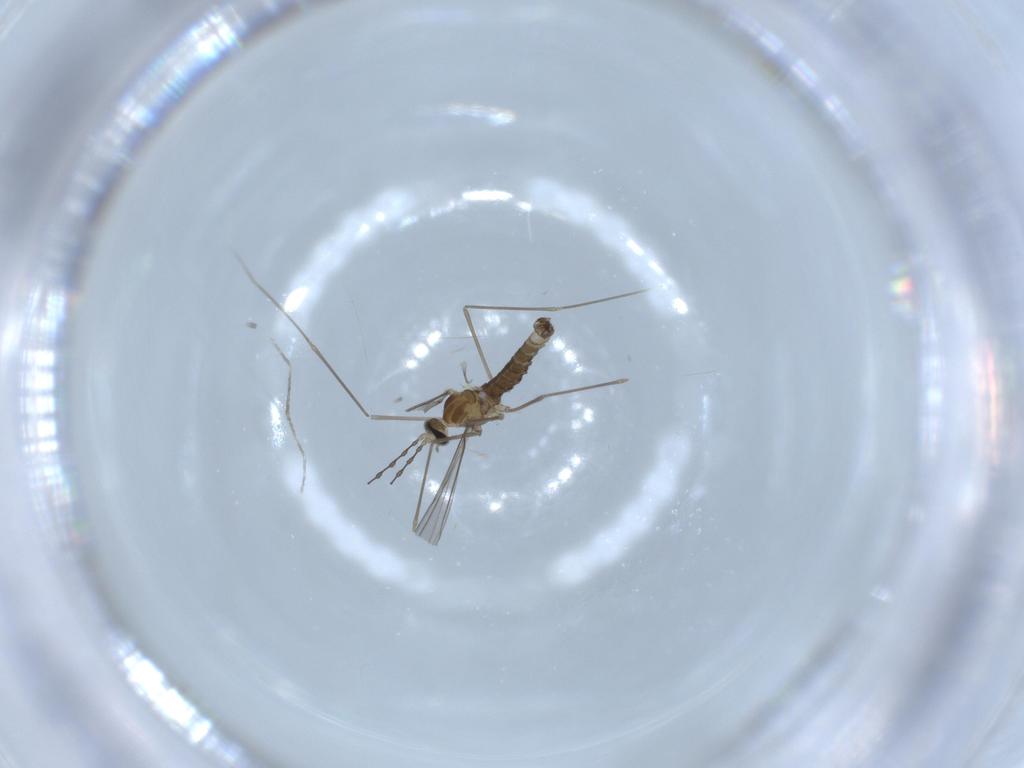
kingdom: Animalia
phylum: Arthropoda
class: Insecta
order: Diptera
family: Cecidomyiidae
